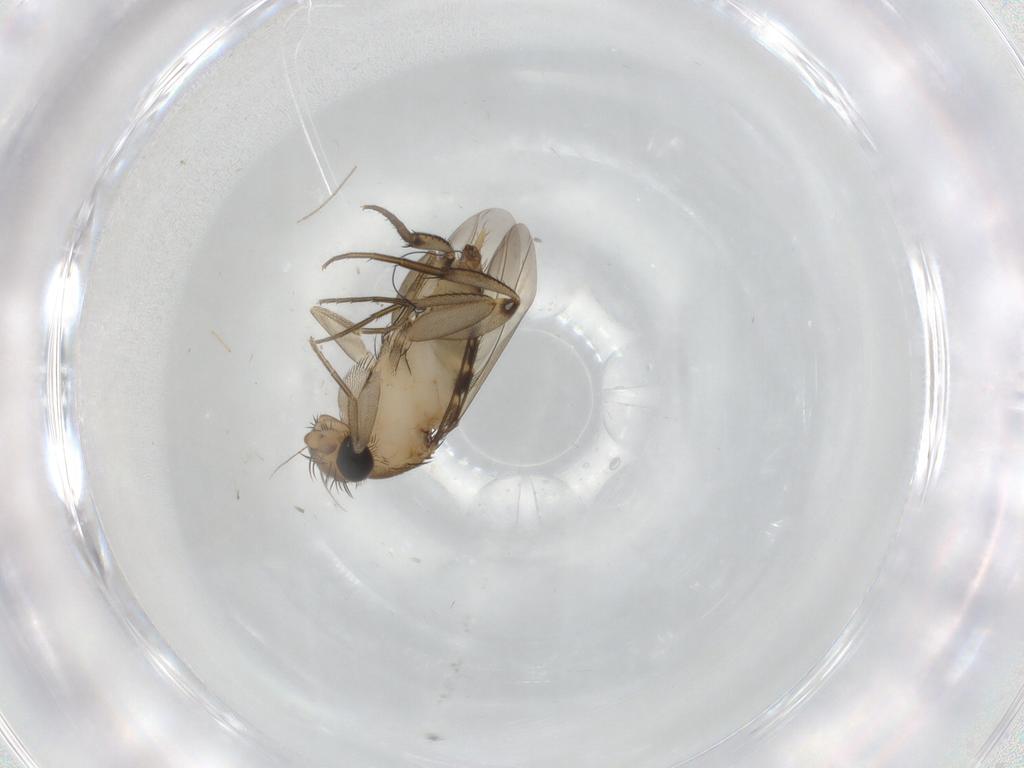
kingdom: Animalia
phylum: Arthropoda
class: Insecta
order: Diptera
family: Phoridae
